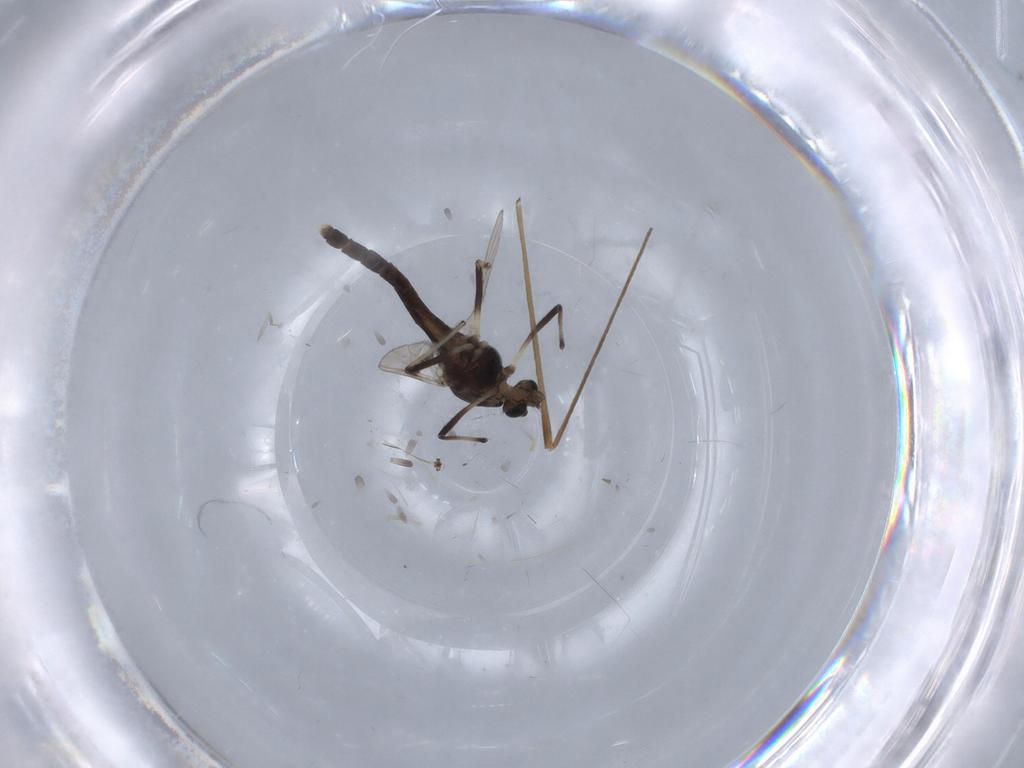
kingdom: Animalia
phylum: Arthropoda
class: Insecta
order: Diptera
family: Chironomidae
